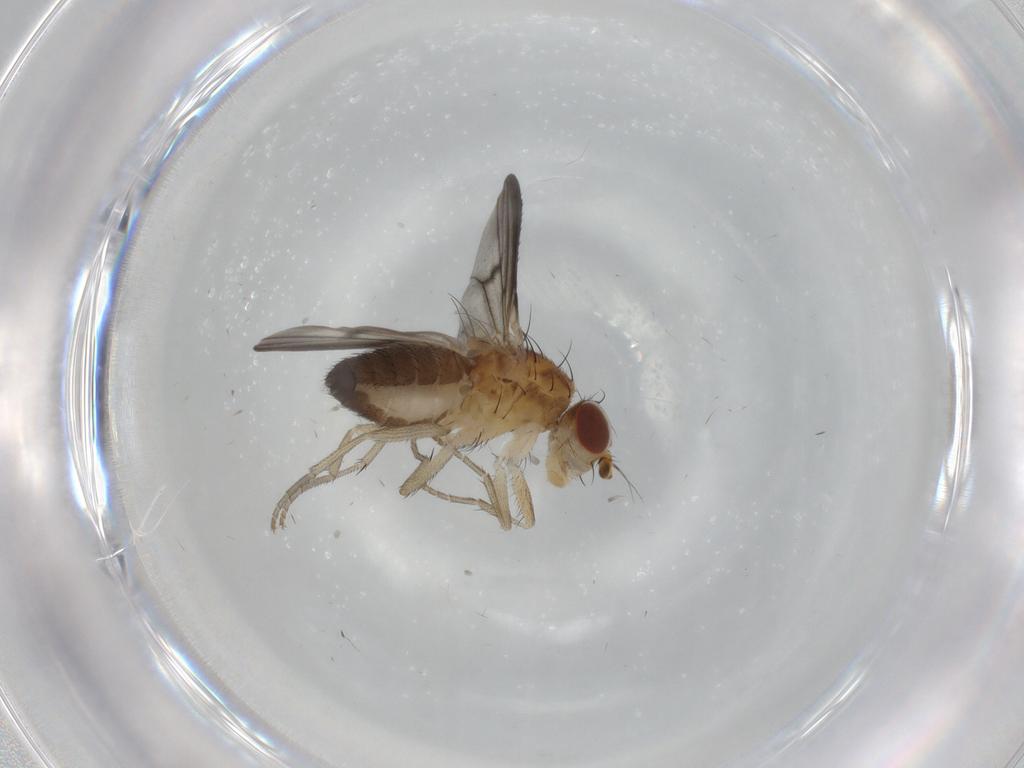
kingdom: Animalia
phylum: Arthropoda
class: Insecta
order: Diptera
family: Heleomyzidae
